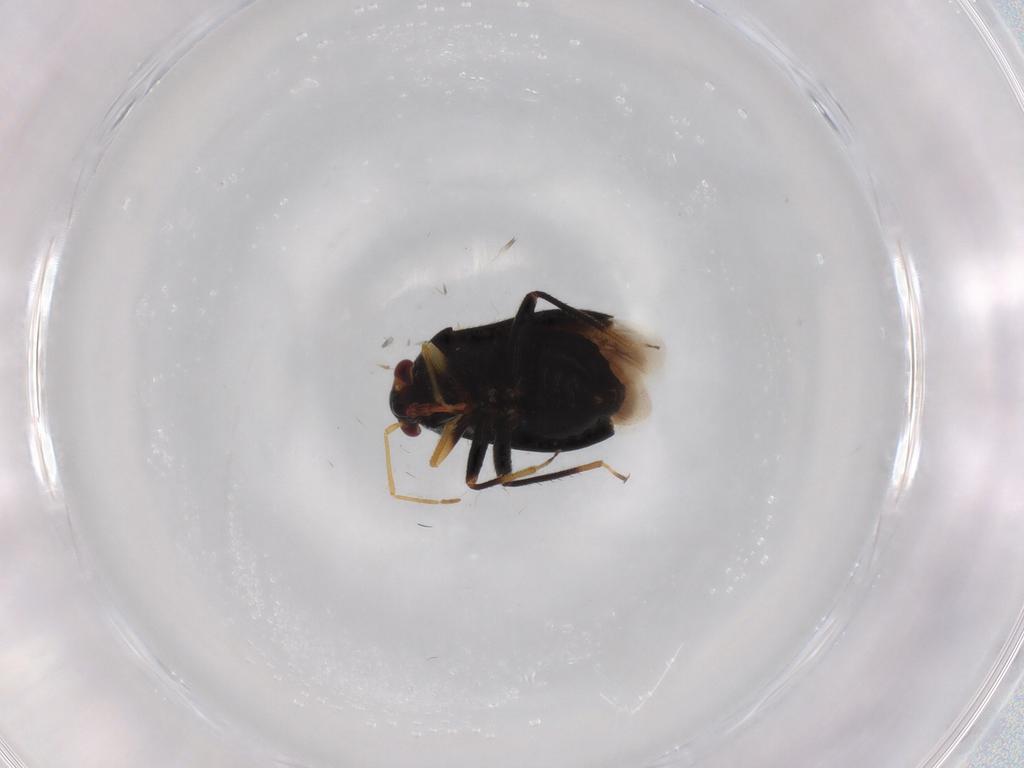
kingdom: Animalia
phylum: Arthropoda
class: Insecta
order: Hemiptera
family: Miridae
